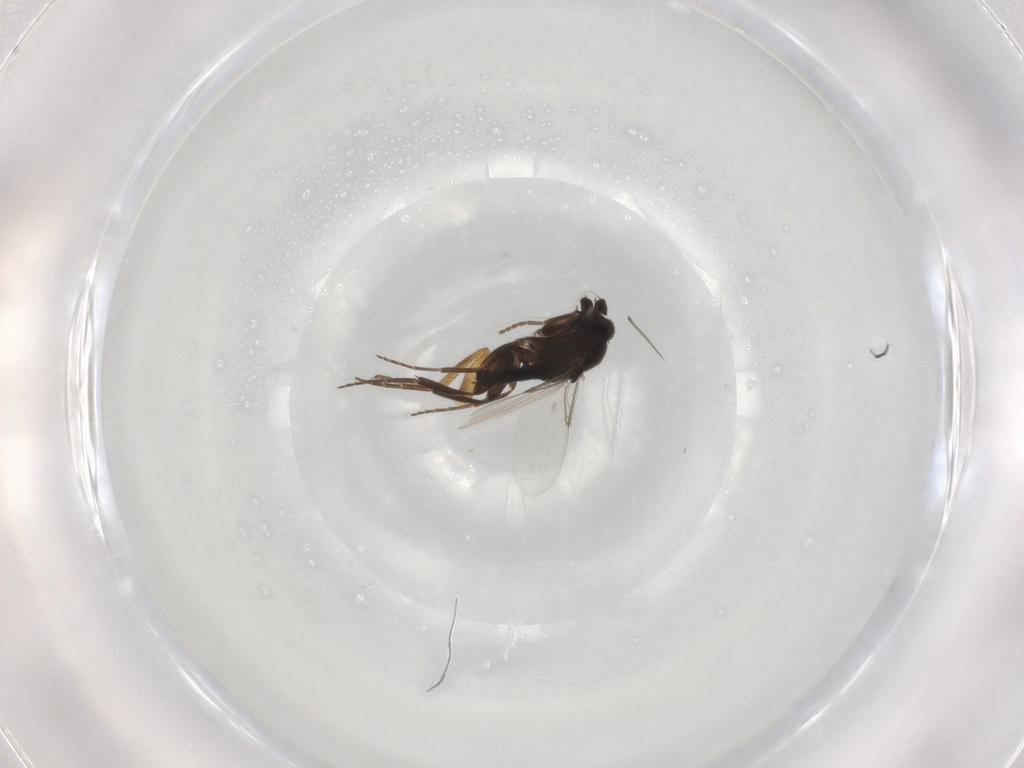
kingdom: Animalia
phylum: Arthropoda
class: Insecta
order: Diptera
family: Phoridae
